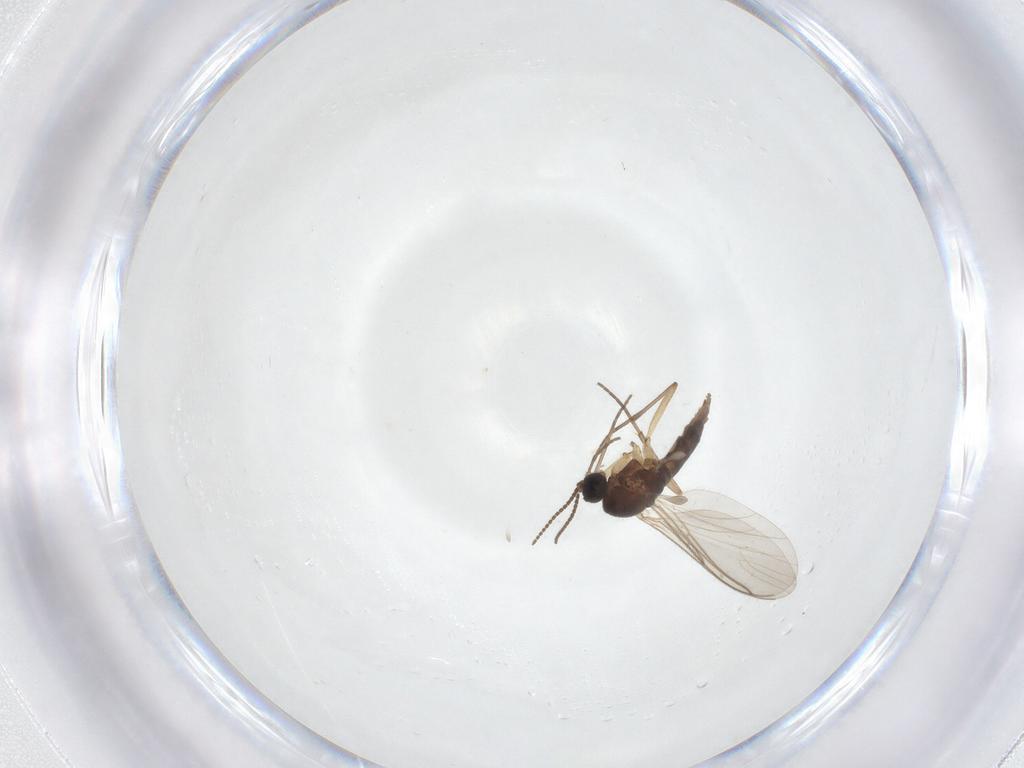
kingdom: Animalia
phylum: Arthropoda
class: Insecta
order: Diptera
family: Sciaridae
